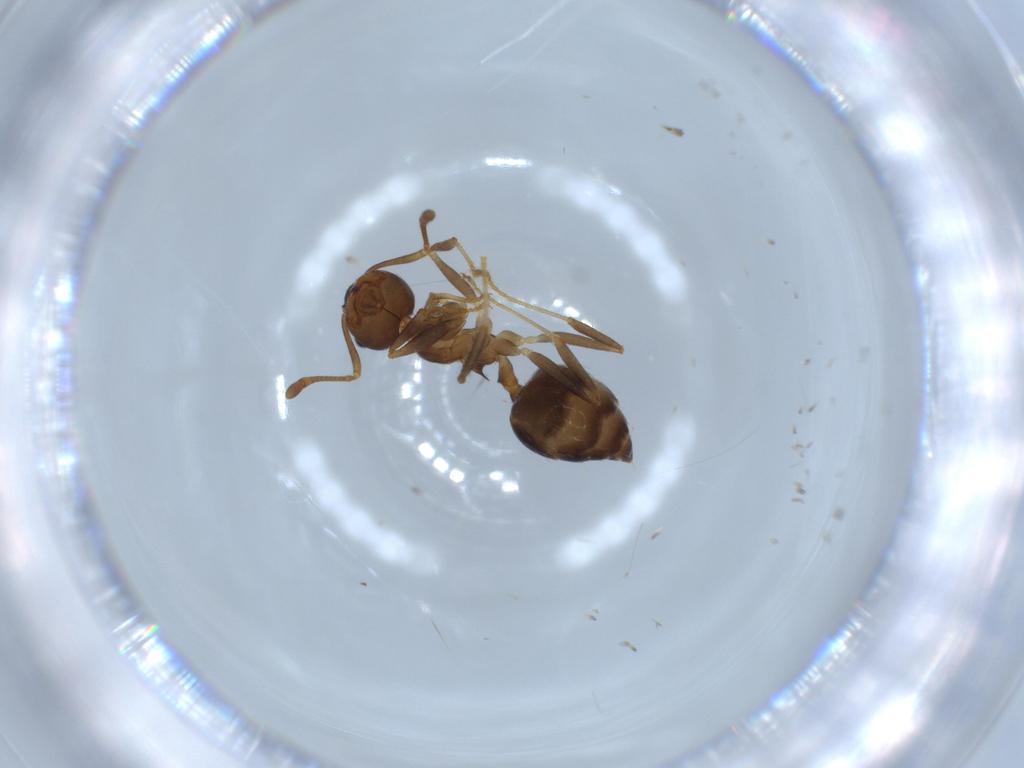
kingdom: Animalia
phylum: Arthropoda
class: Insecta
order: Hymenoptera
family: Formicidae
